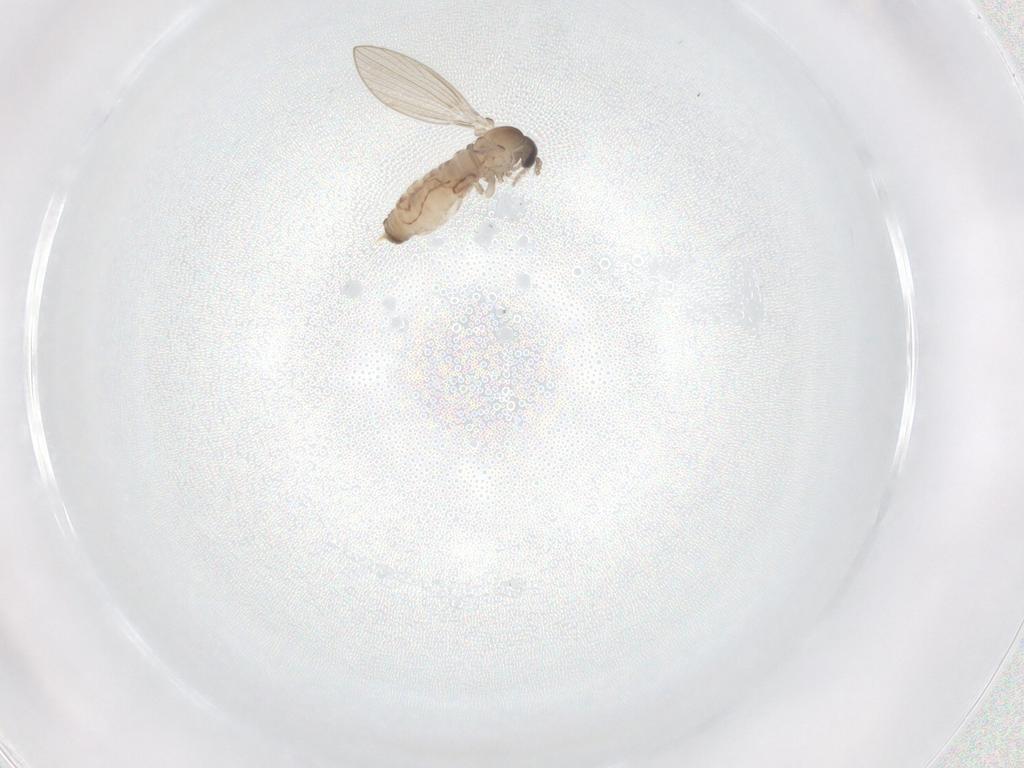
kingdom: Animalia
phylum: Arthropoda
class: Insecta
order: Diptera
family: Psychodidae
